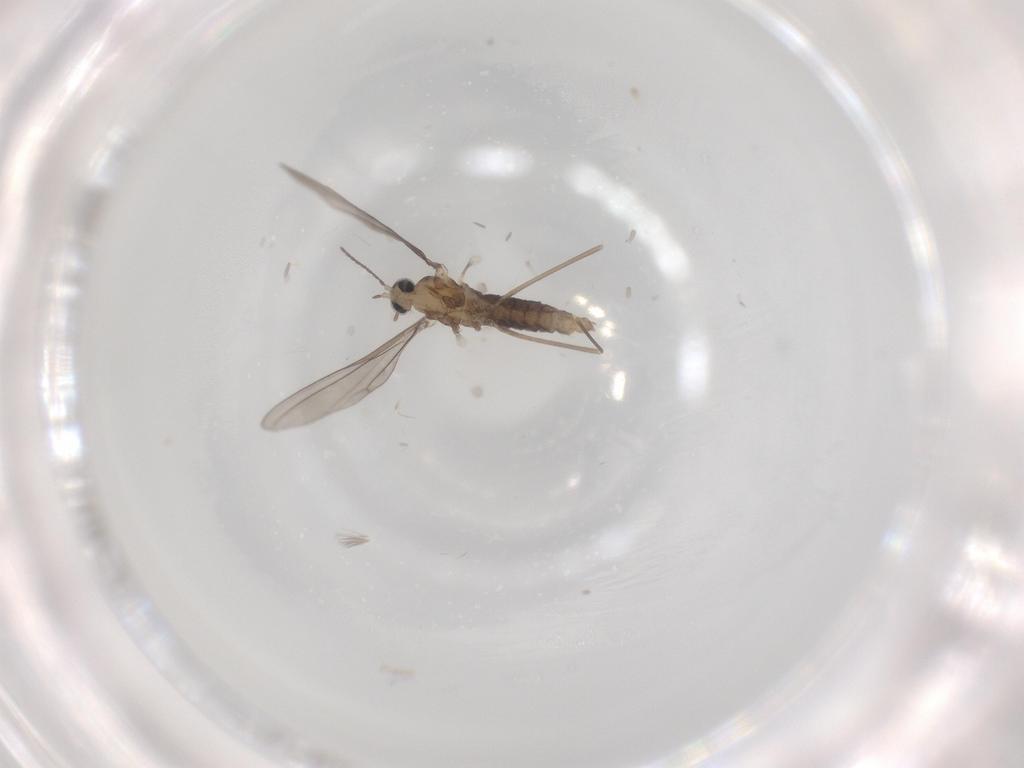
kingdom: Animalia
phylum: Arthropoda
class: Insecta
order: Diptera
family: Cecidomyiidae
